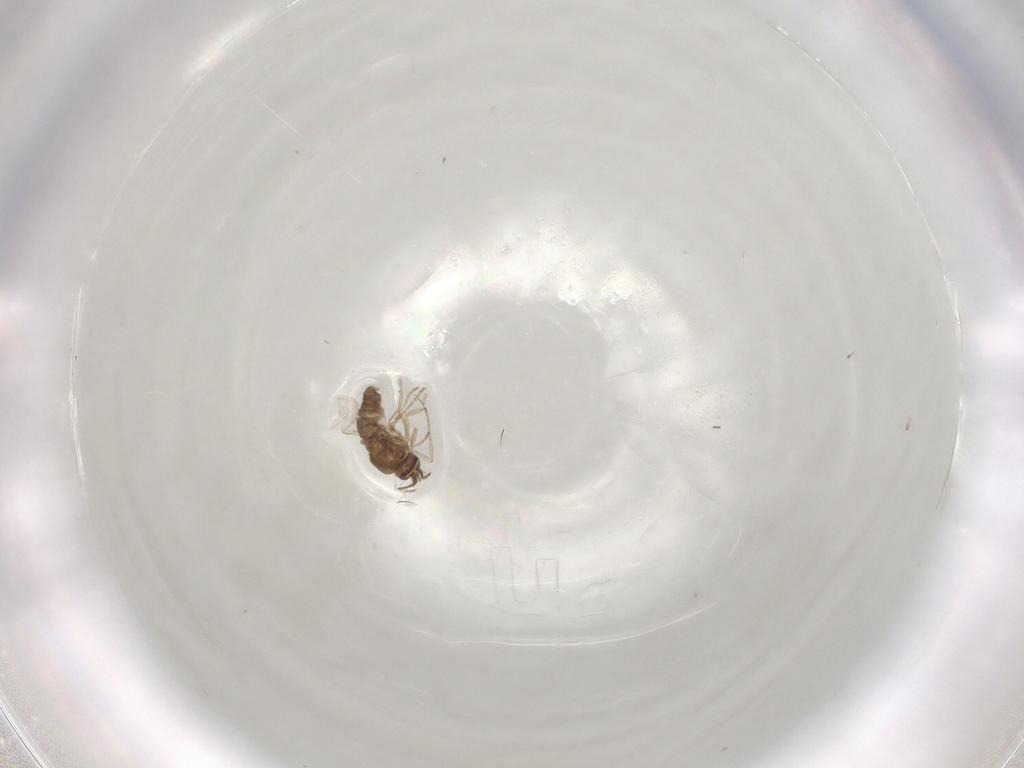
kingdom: Animalia
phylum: Arthropoda
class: Insecta
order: Diptera
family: Ceratopogonidae
